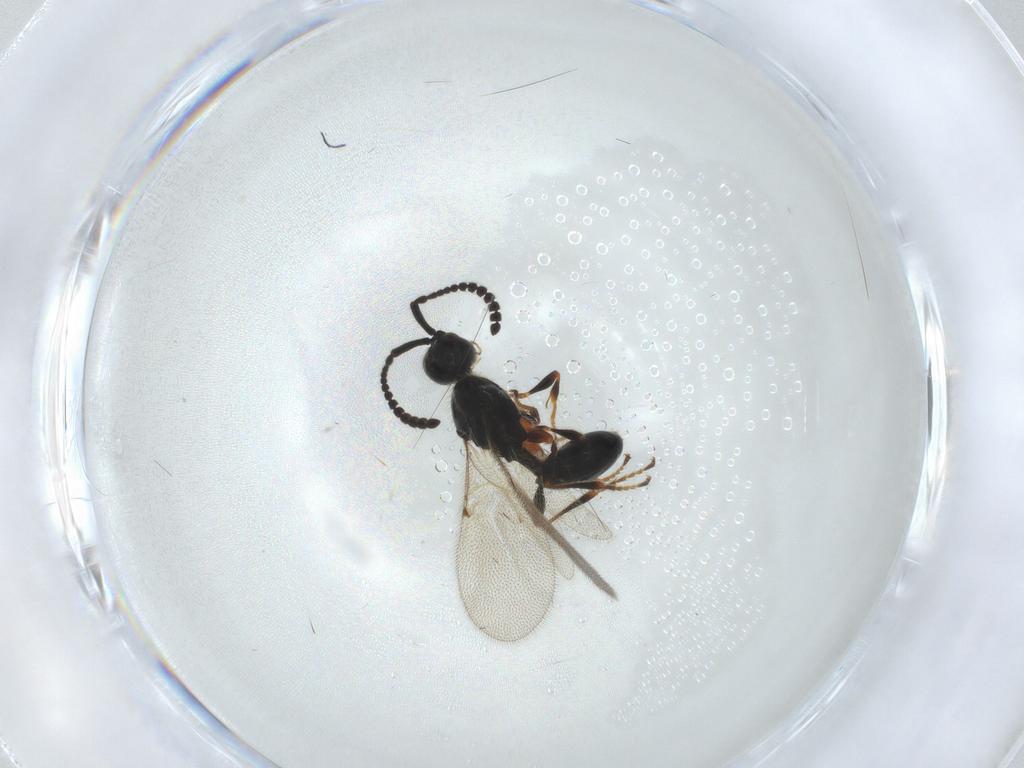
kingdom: Animalia
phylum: Arthropoda
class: Insecta
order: Hymenoptera
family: Diapriidae
